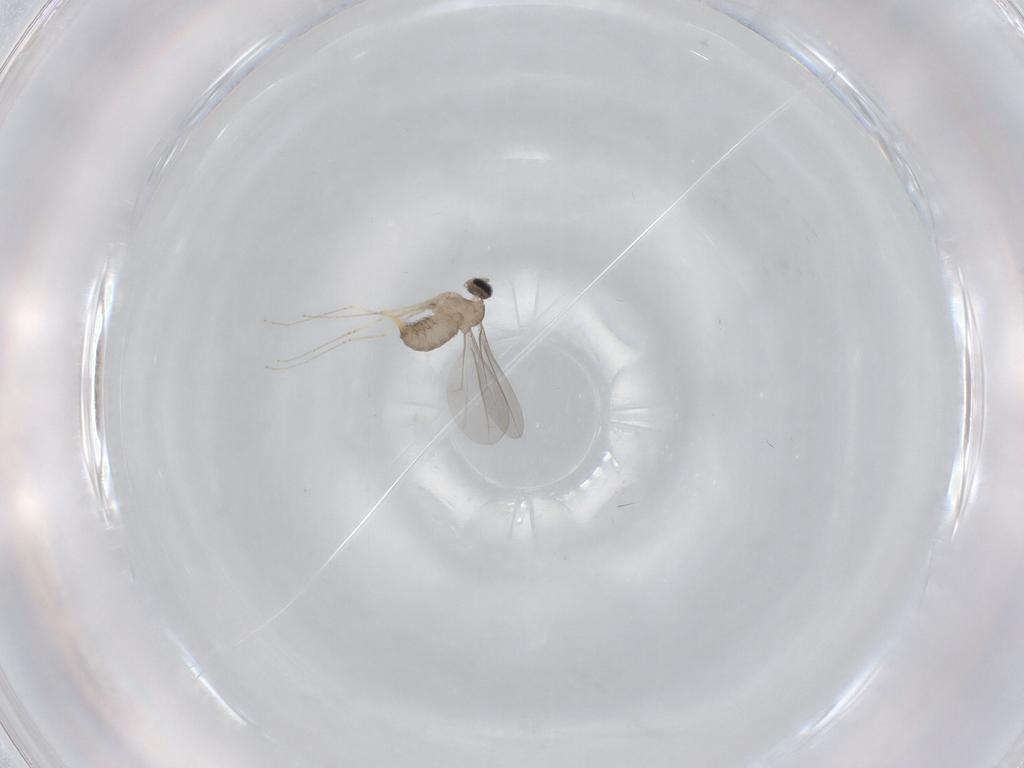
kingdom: Animalia
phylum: Arthropoda
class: Insecta
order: Diptera
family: Cecidomyiidae
